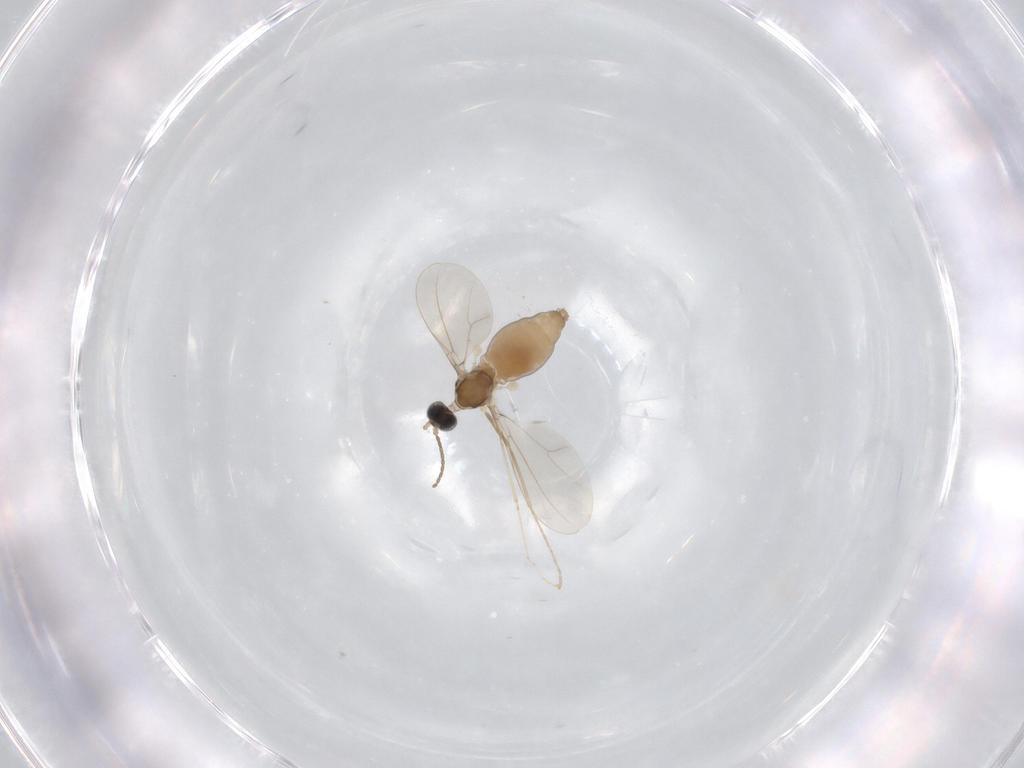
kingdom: Animalia
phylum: Arthropoda
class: Insecta
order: Diptera
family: Cecidomyiidae
